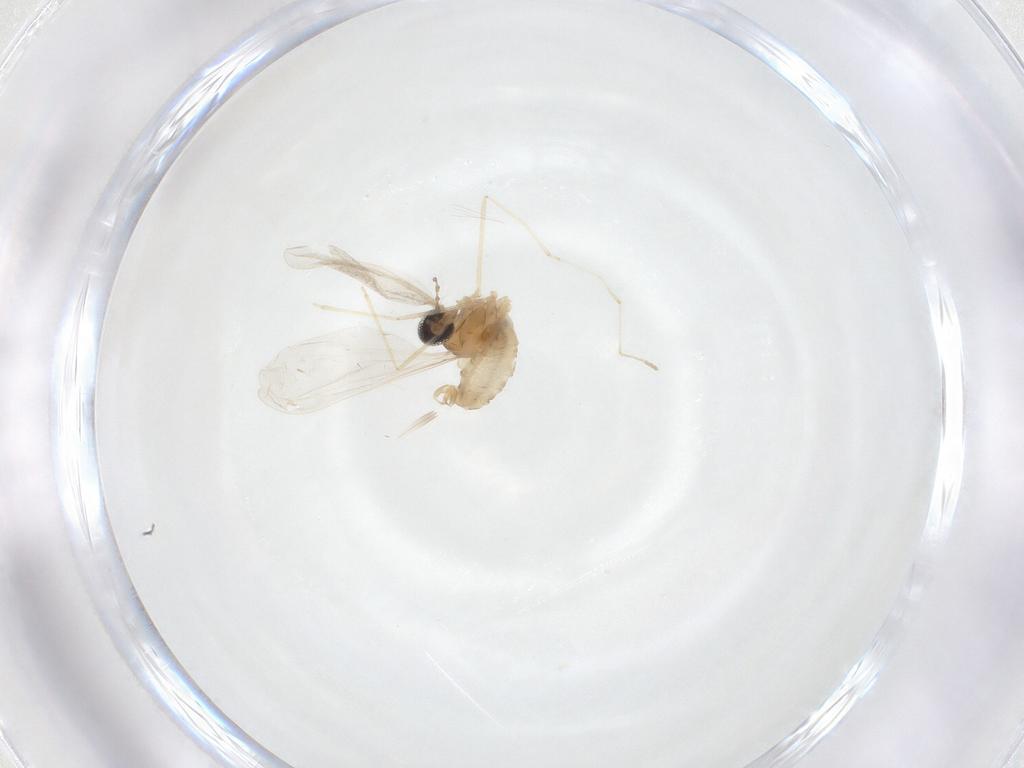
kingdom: Animalia
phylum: Arthropoda
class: Insecta
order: Diptera
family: Cecidomyiidae
